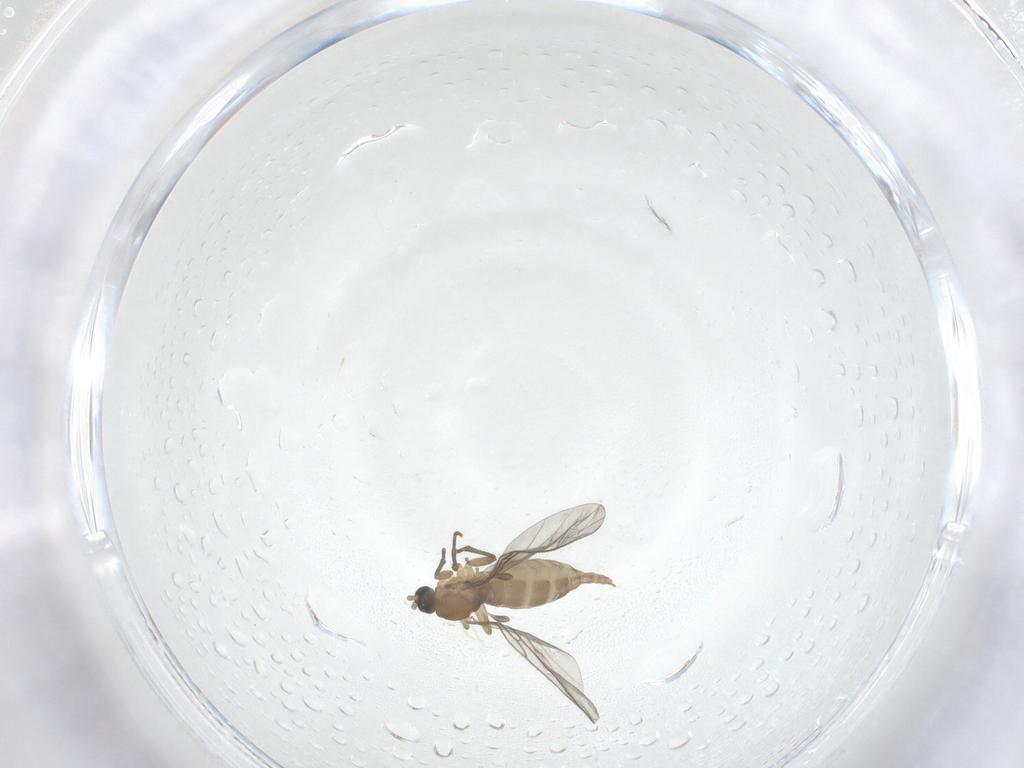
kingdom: Animalia
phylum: Arthropoda
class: Insecta
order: Diptera
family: Sciaridae
